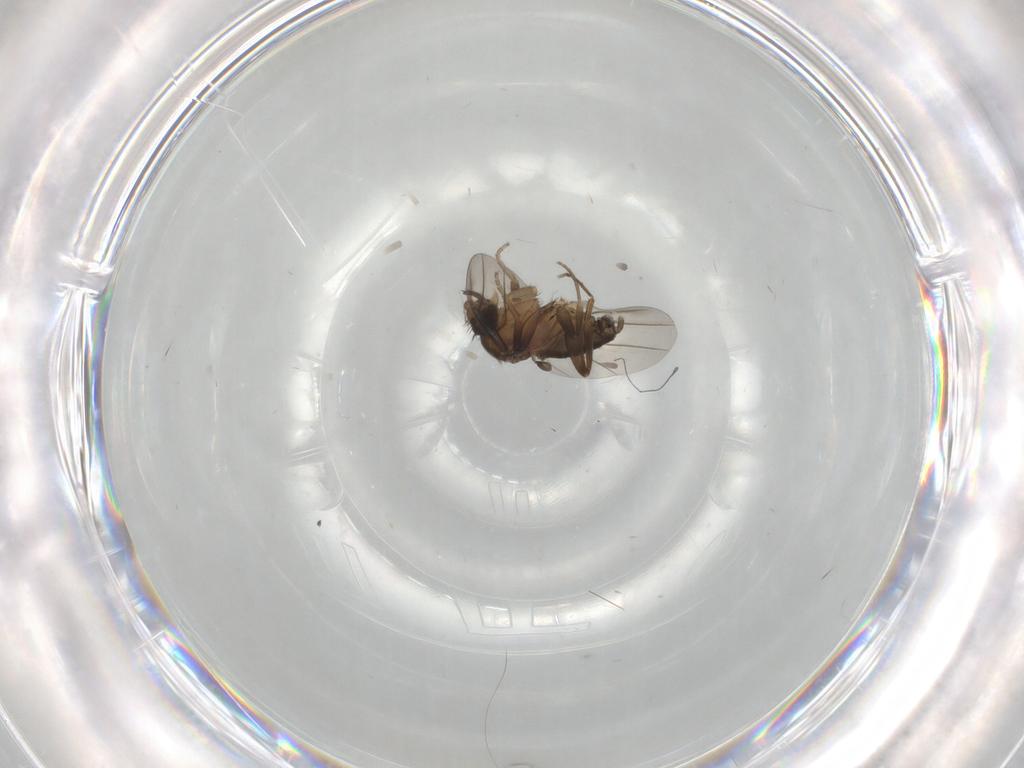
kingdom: Animalia
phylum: Arthropoda
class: Insecta
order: Diptera
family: Phoridae
